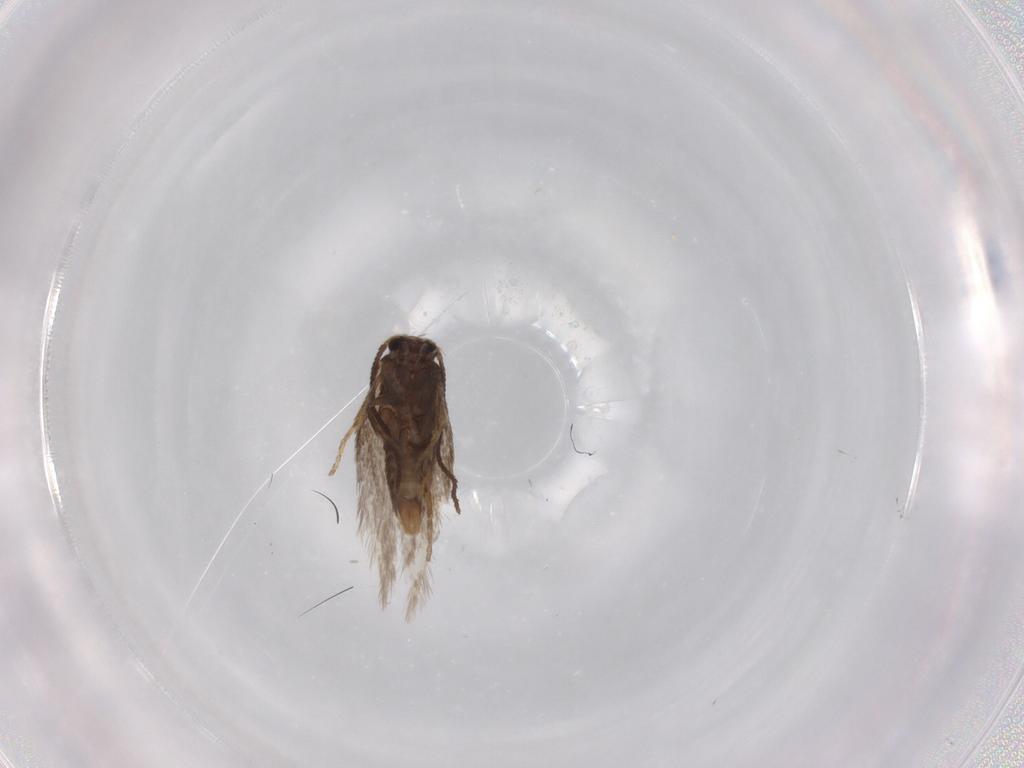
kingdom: Animalia
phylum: Arthropoda
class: Insecta
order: Lepidoptera
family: Nepticulidae
